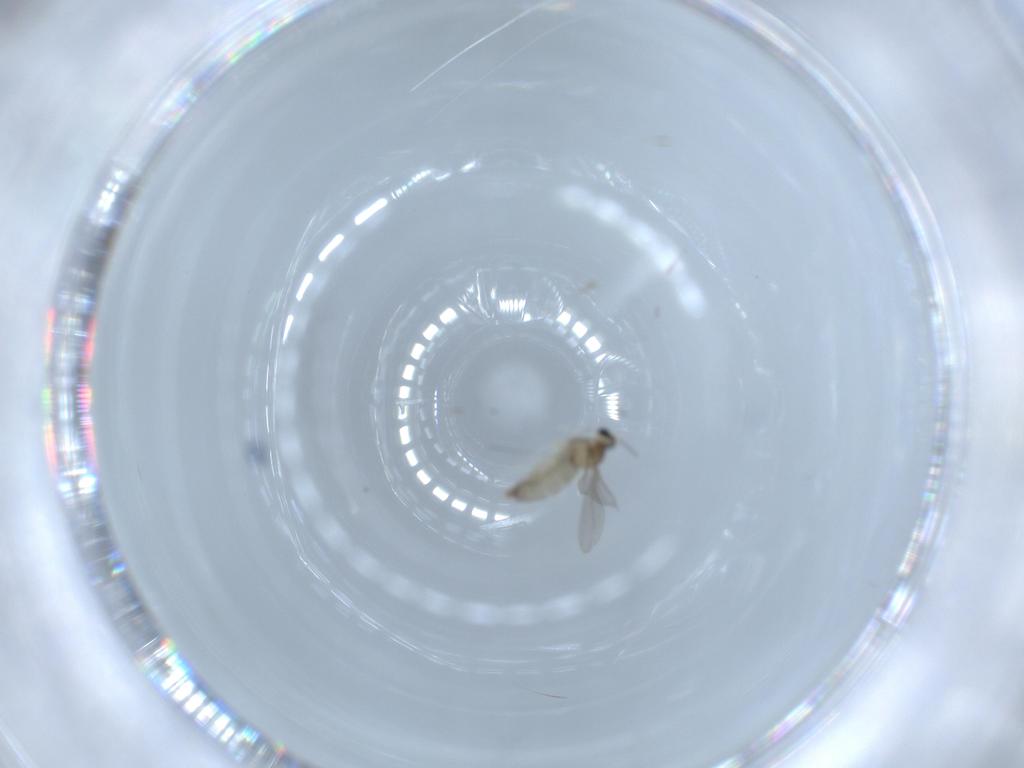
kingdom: Animalia
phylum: Arthropoda
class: Insecta
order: Diptera
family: Cecidomyiidae
